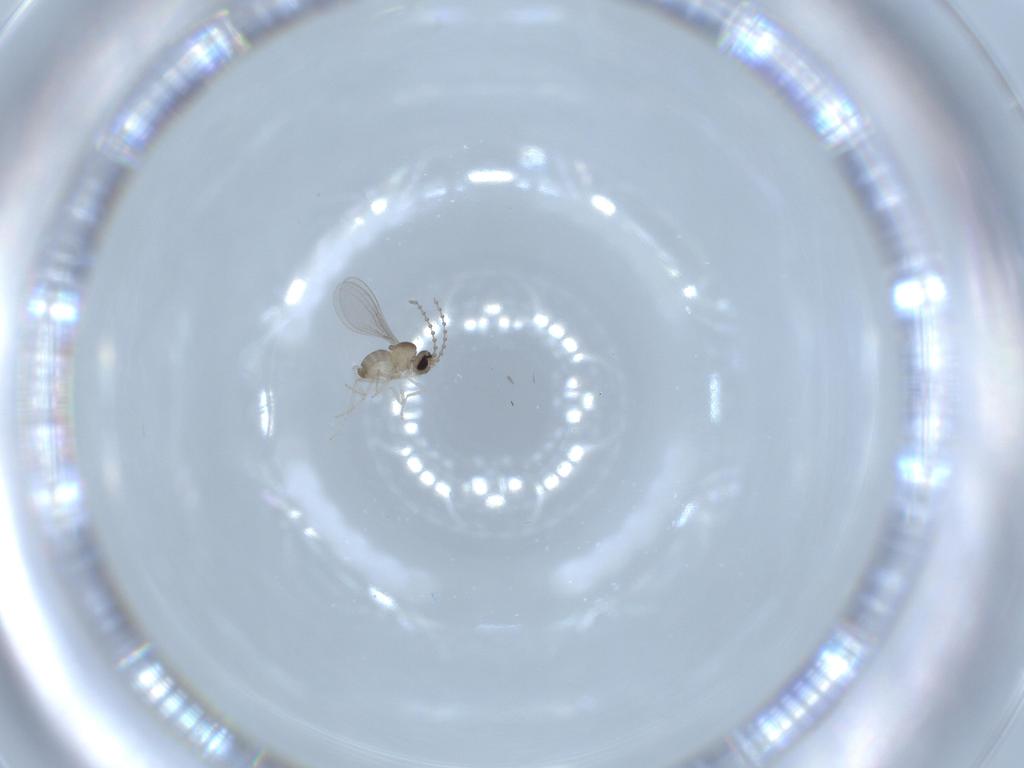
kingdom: Animalia
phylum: Arthropoda
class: Insecta
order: Diptera
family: Cecidomyiidae
